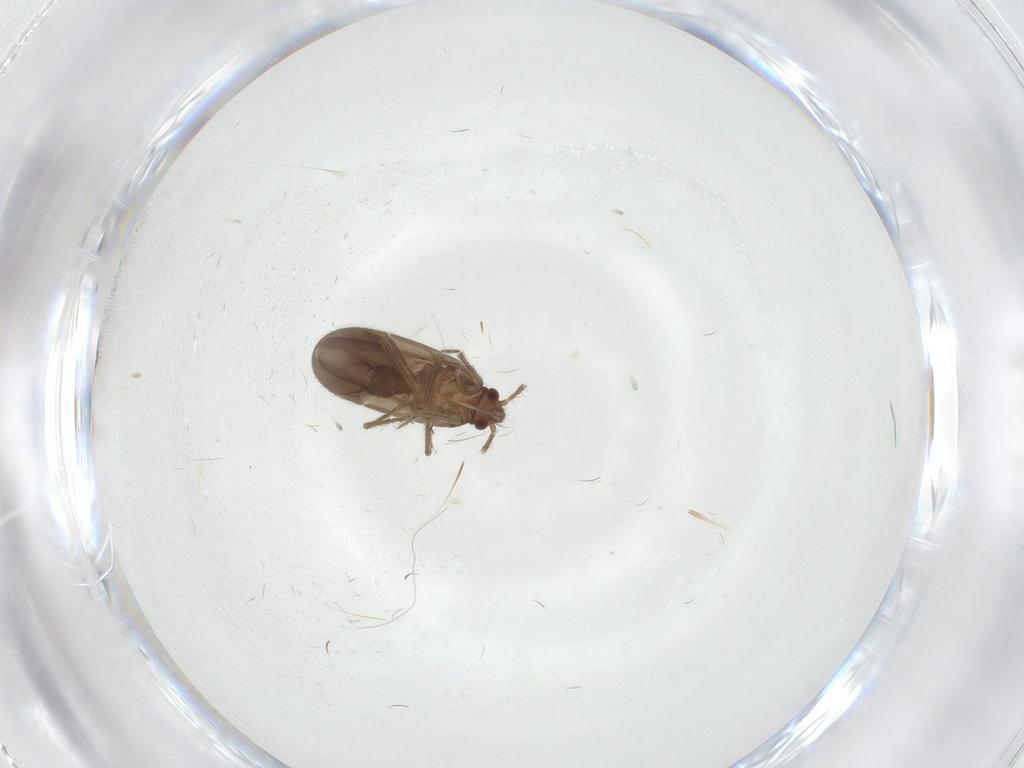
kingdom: Animalia
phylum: Arthropoda
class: Insecta
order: Hemiptera
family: Ceratocombidae
